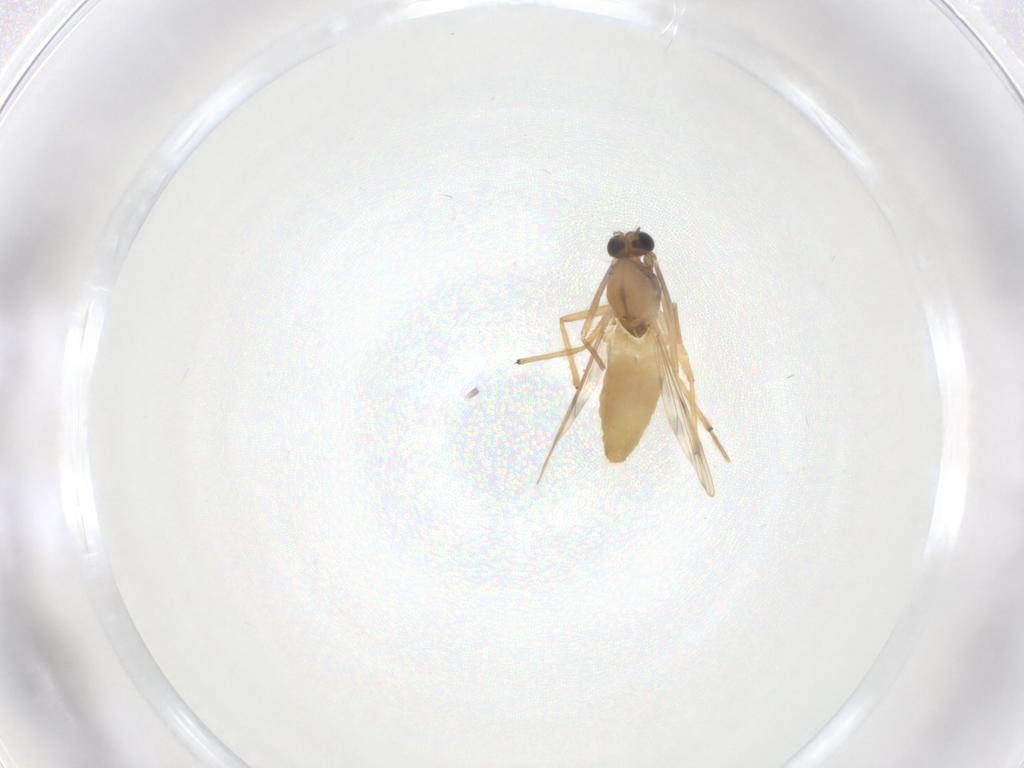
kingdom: Animalia
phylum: Arthropoda
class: Insecta
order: Diptera
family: Chironomidae
